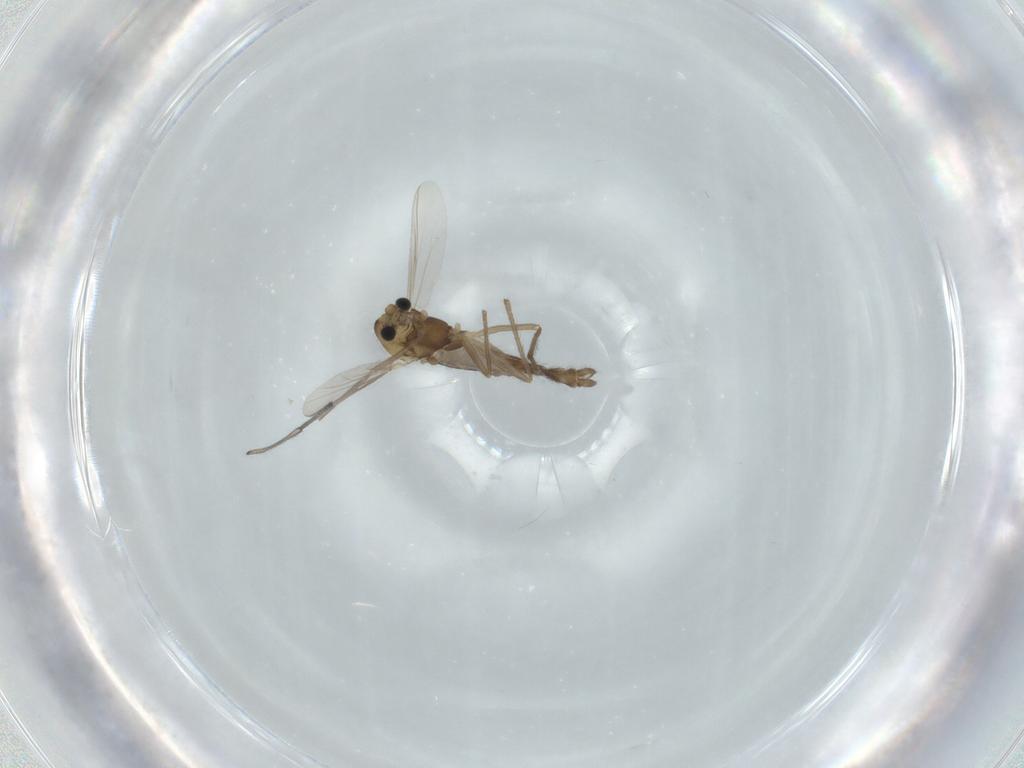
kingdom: Animalia
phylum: Arthropoda
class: Insecta
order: Diptera
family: Chironomidae
